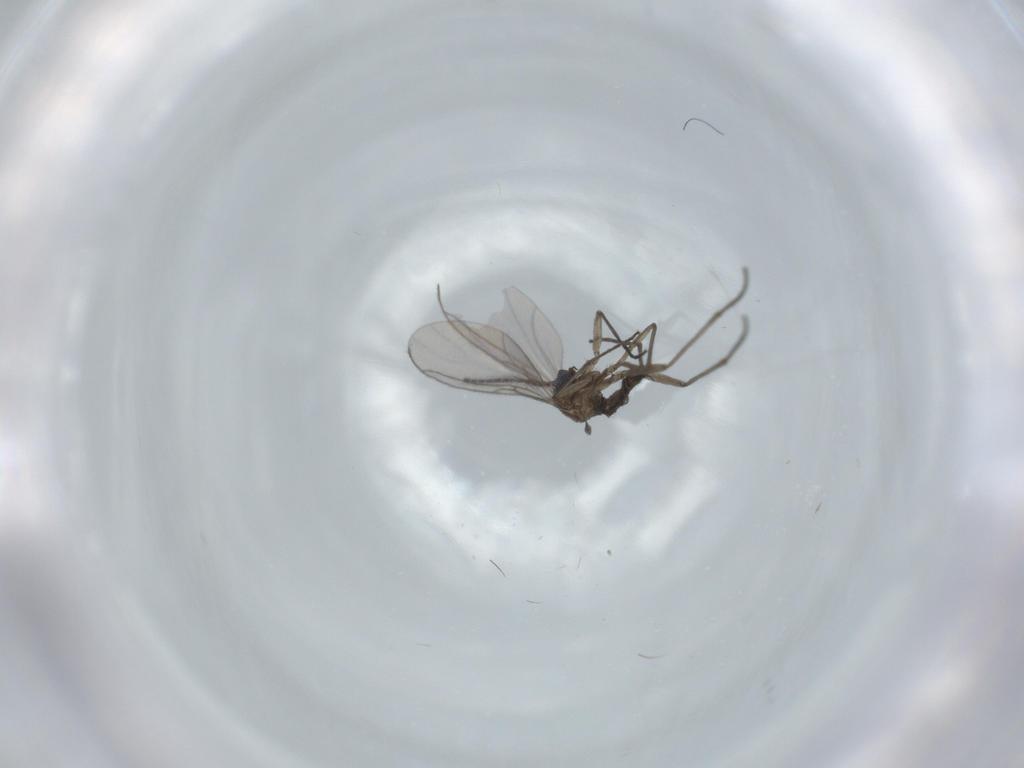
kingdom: Animalia
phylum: Arthropoda
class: Insecta
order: Diptera
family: Sciaridae
